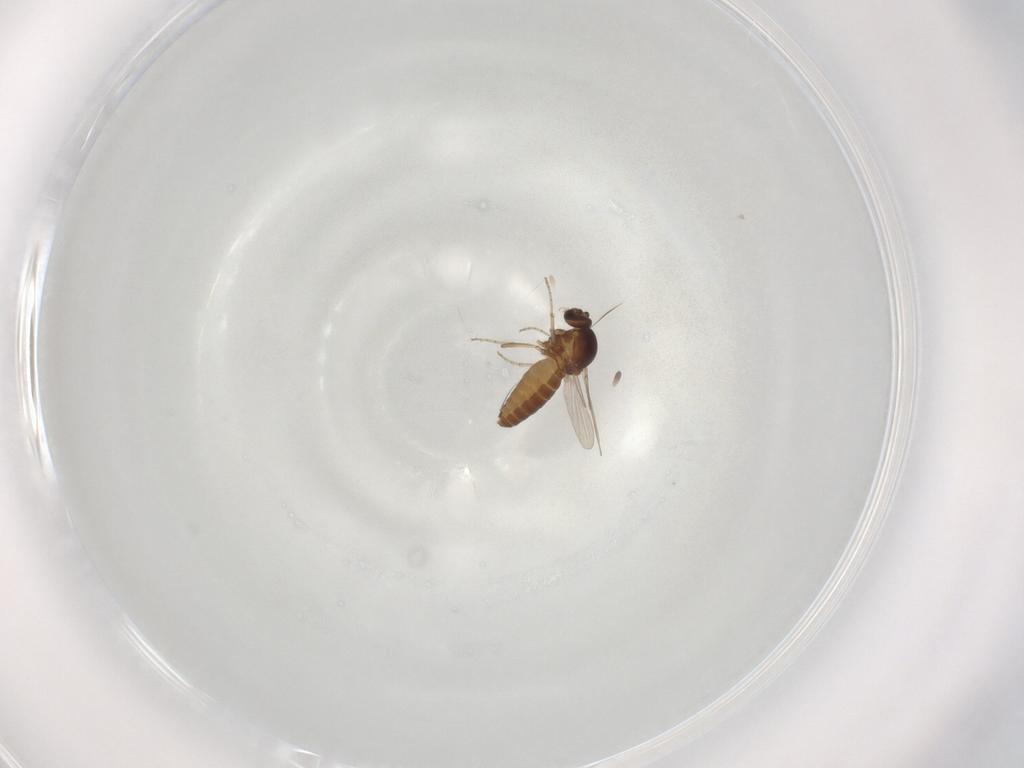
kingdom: Animalia
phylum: Arthropoda
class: Insecta
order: Diptera
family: Ceratopogonidae
